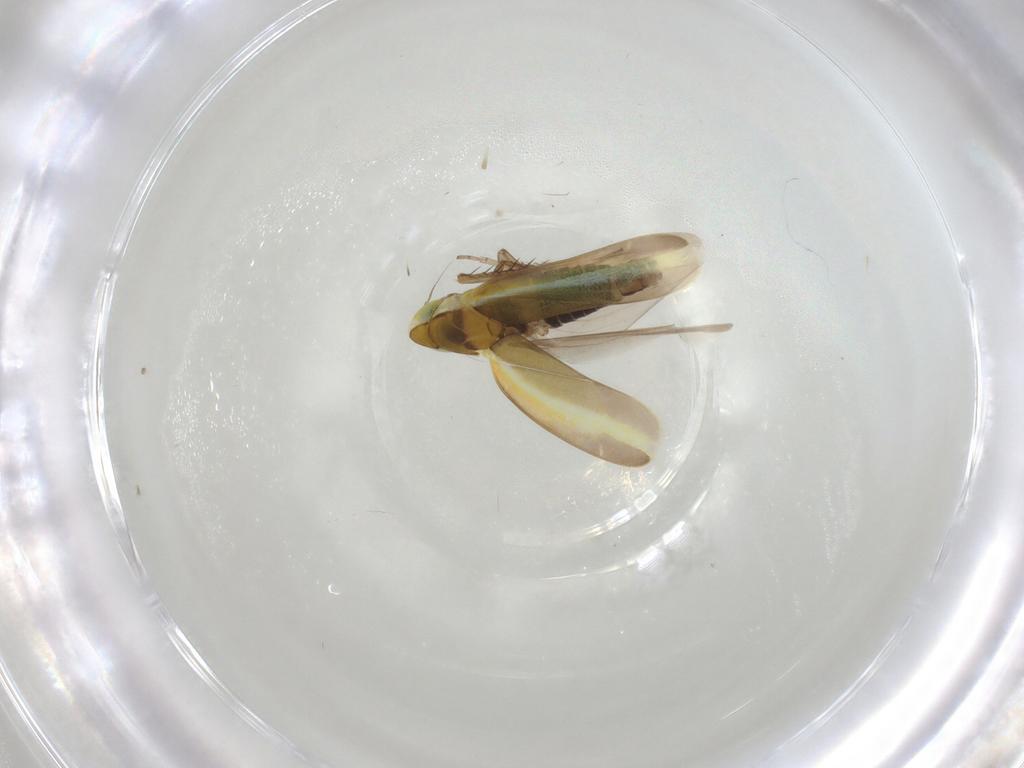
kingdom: Animalia
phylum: Arthropoda
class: Insecta
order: Hemiptera
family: Cicadellidae
